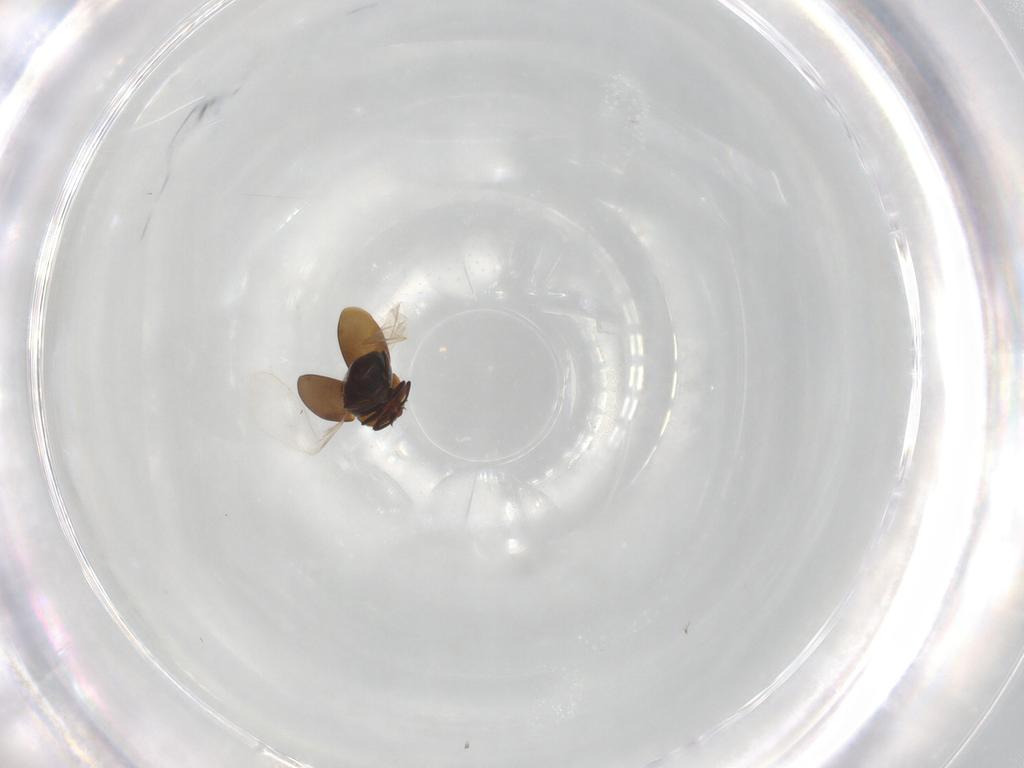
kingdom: Animalia
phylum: Arthropoda
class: Insecta
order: Coleoptera
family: Corylophidae
